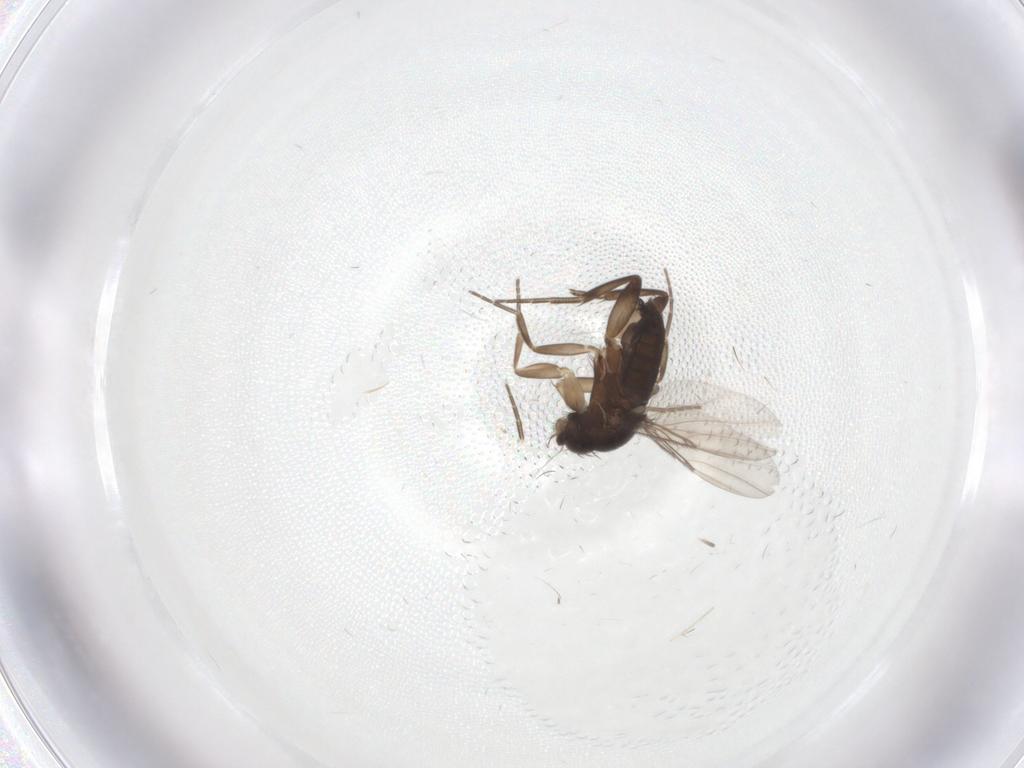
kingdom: Animalia
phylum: Arthropoda
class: Insecta
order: Diptera
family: Phoridae
